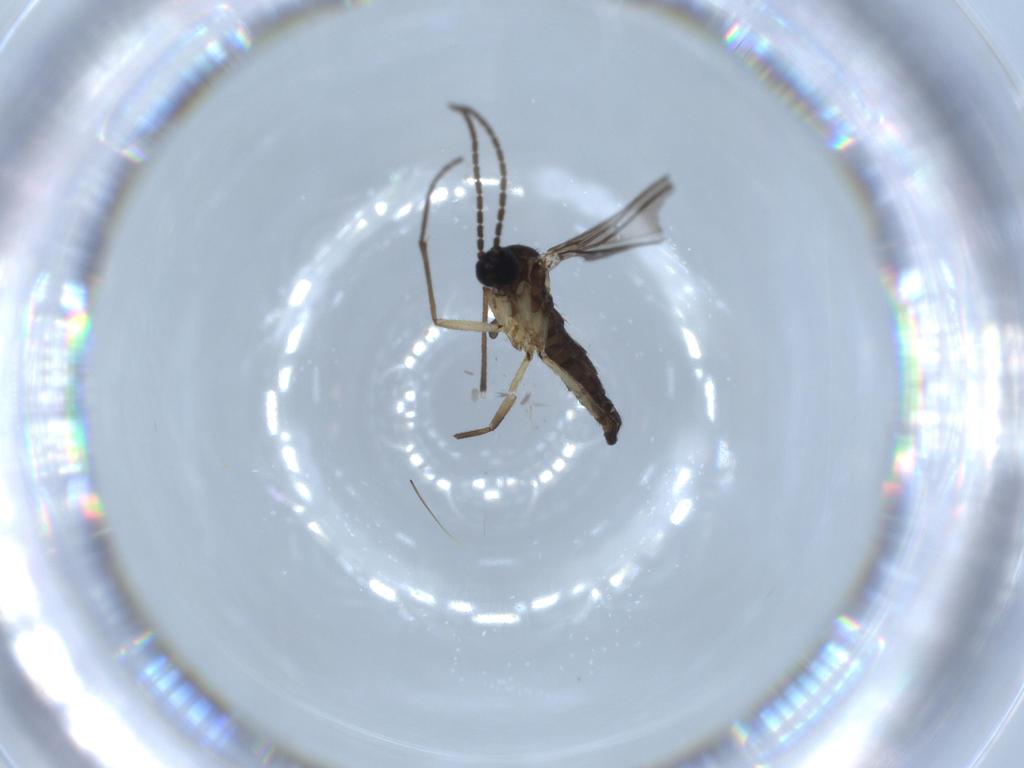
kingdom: Animalia
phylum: Arthropoda
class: Insecta
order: Diptera
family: Sciaridae
